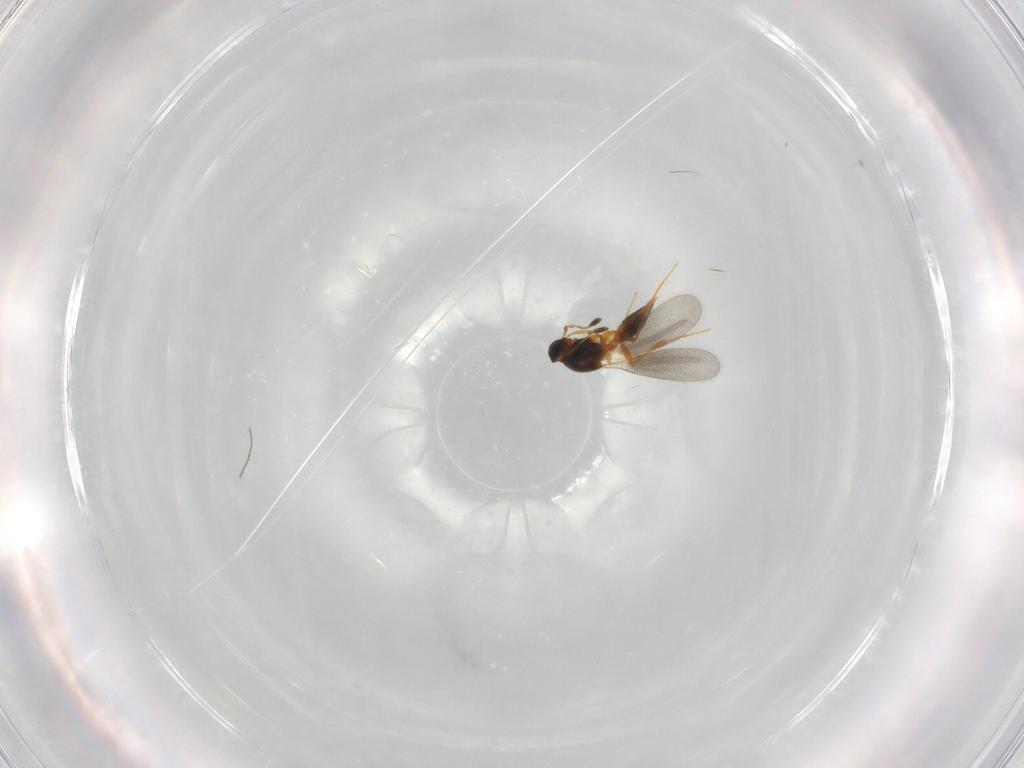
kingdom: Animalia
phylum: Arthropoda
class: Insecta
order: Hymenoptera
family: Platygastridae
